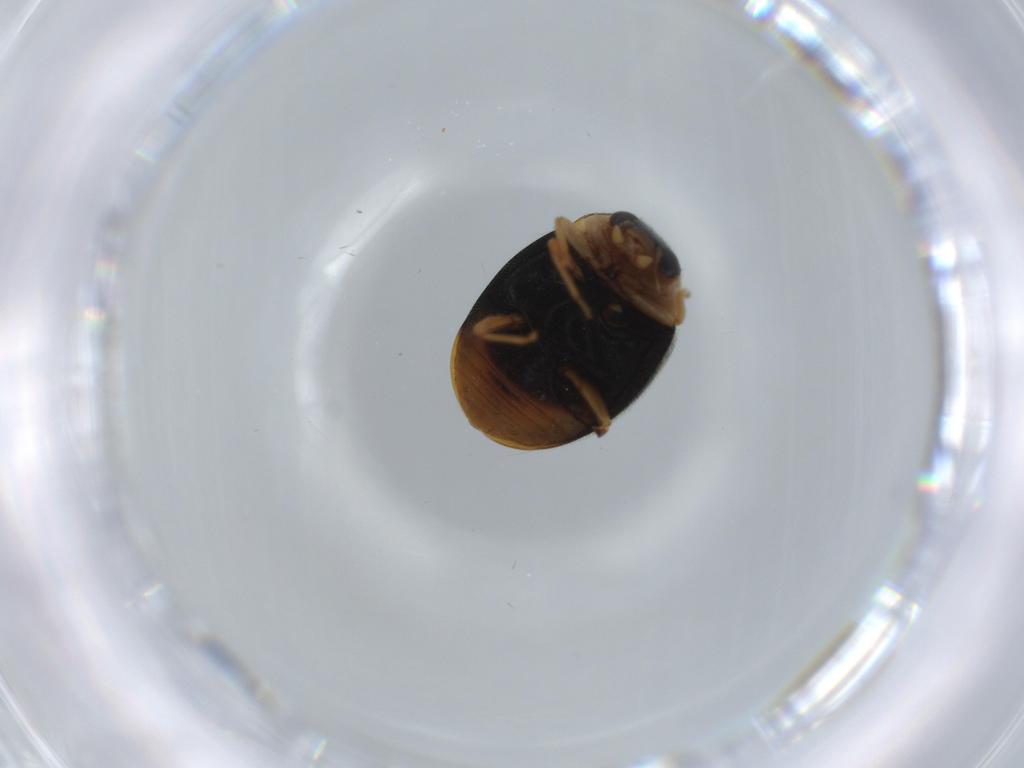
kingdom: Animalia
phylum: Arthropoda
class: Insecta
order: Coleoptera
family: Coccinellidae
